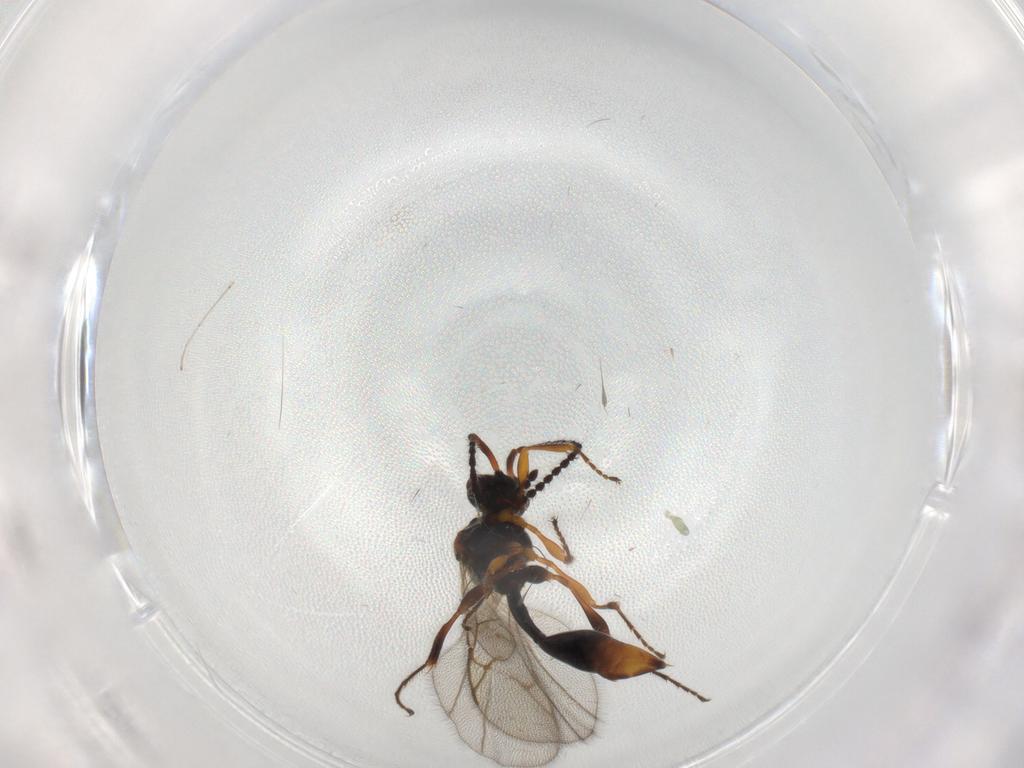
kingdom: Animalia
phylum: Arthropoda
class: Insecta
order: Hymenoptera
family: Diapriidae
